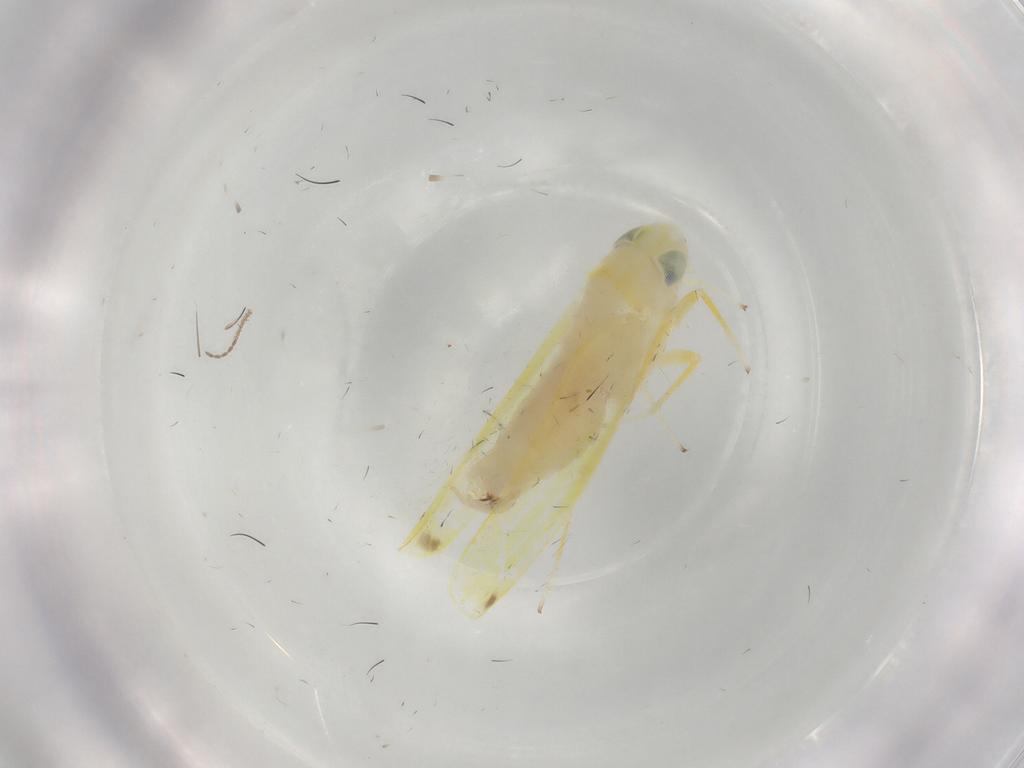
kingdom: Animalia
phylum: Arthropoda
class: Insecta
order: Hemiptera
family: Cicadellidae
